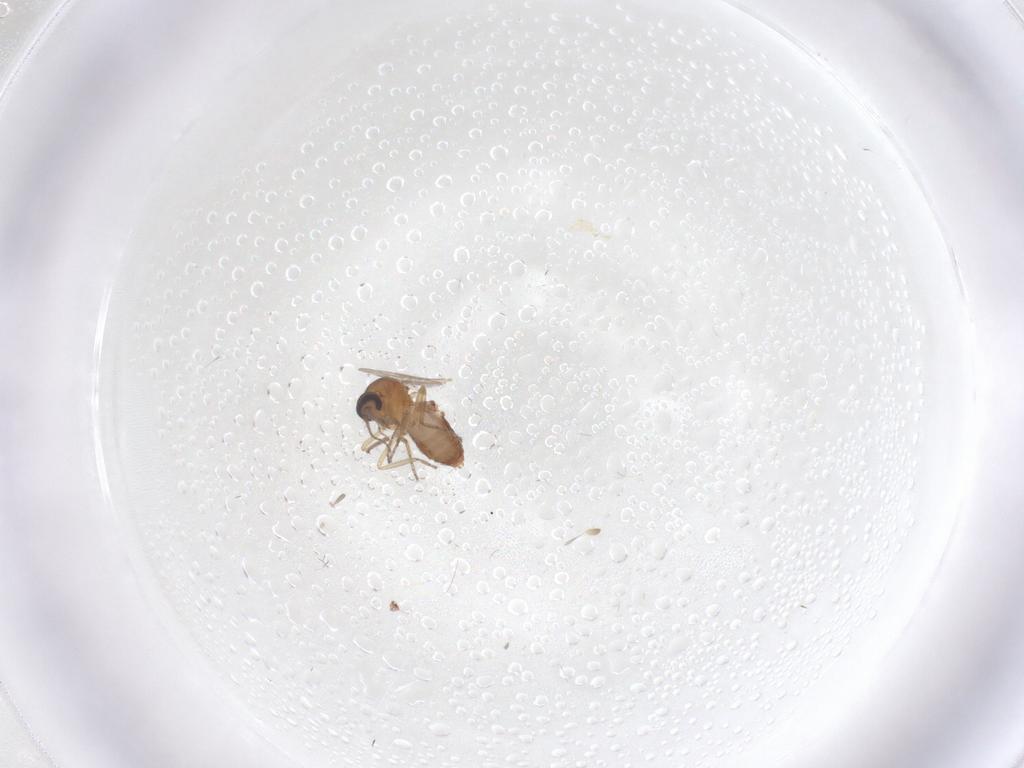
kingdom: Animalia
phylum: Arthropoda
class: Insecta
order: Diptera
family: Ceratopogonidae
